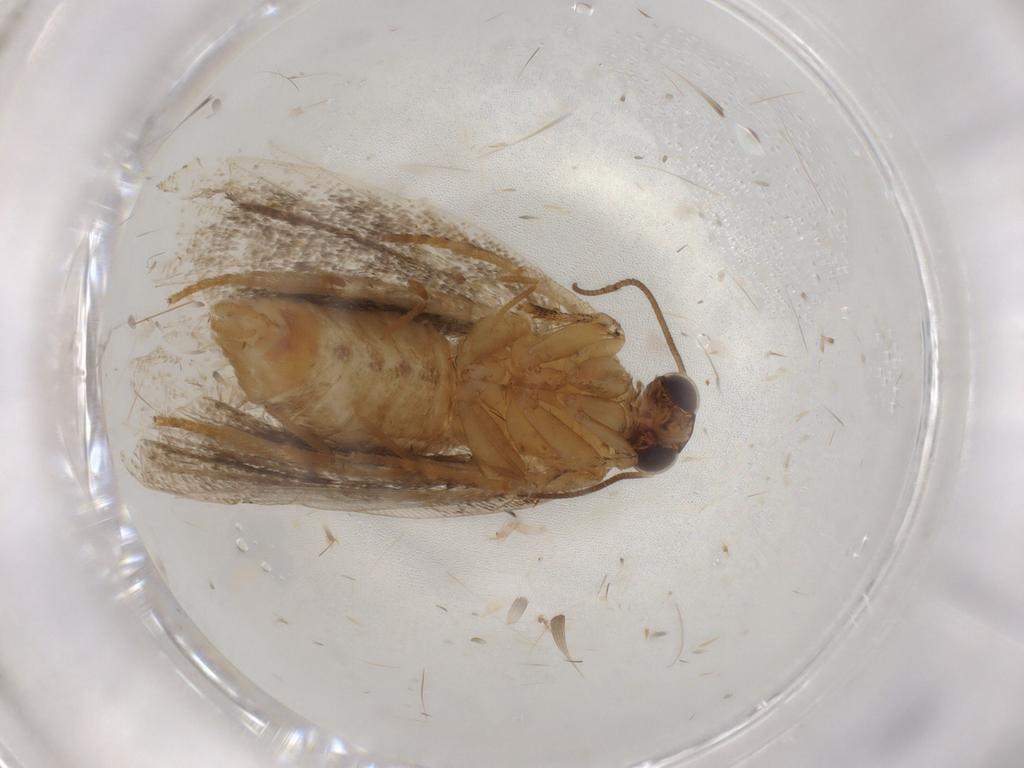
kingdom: Animalia
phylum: Arthropoda
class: Insecta
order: Lepidoptera
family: Tortricidae
